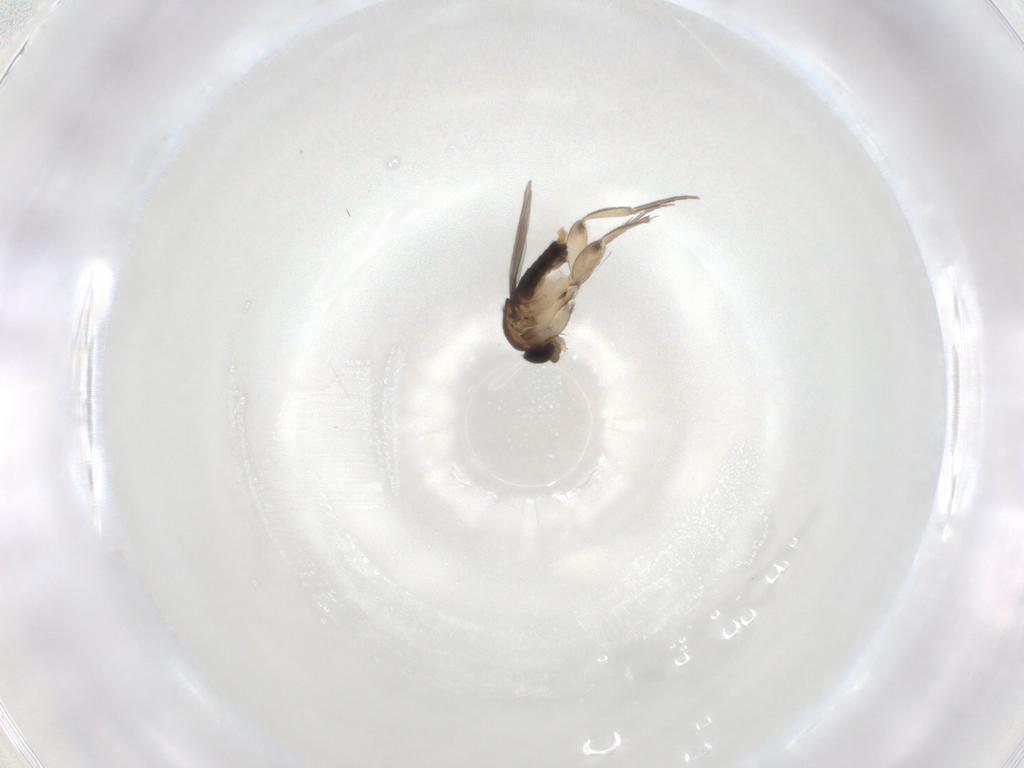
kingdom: Animalia
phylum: Arthropoda
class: Insecta
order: Diptera
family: Phoridae
